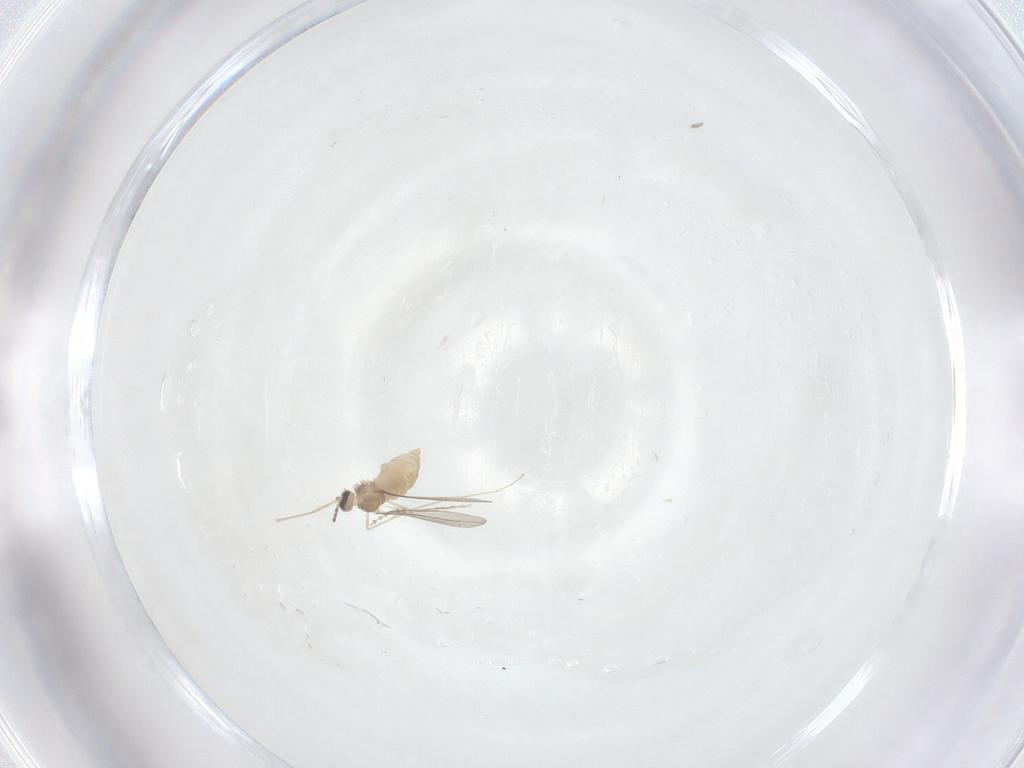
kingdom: Animalia
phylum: Arthropoda
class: Insecta
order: Diptera
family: Cecidomyiidae
